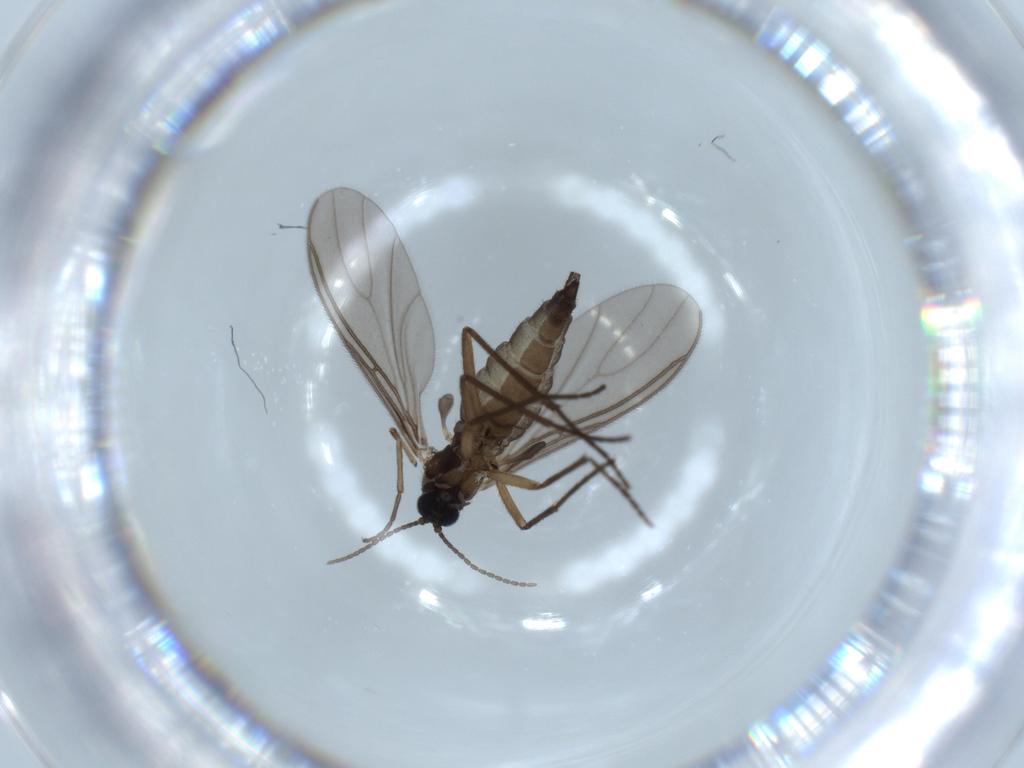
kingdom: Animalia
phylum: Arthropoda
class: Insecta
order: Diptera
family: Chironomidae
